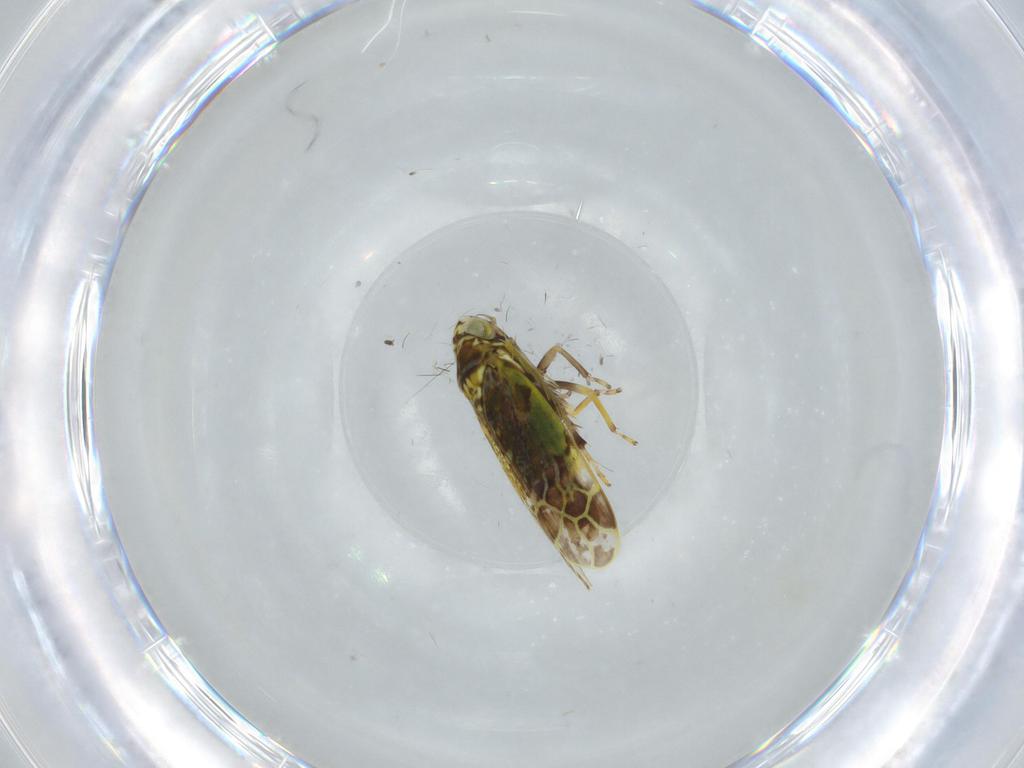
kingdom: Animalia
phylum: Arthropoda
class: Insecta
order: Hemiptera
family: Cicadellidae
